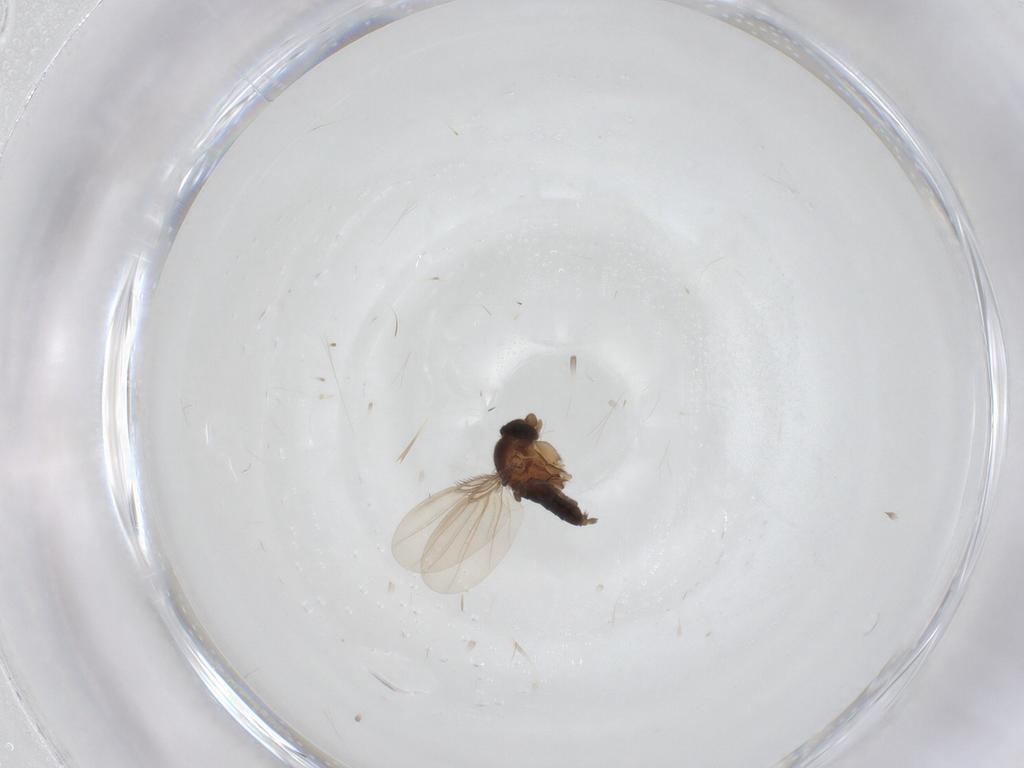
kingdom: Animalia
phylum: Arthropoda
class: Insecta
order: Diptera
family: Phoridae
